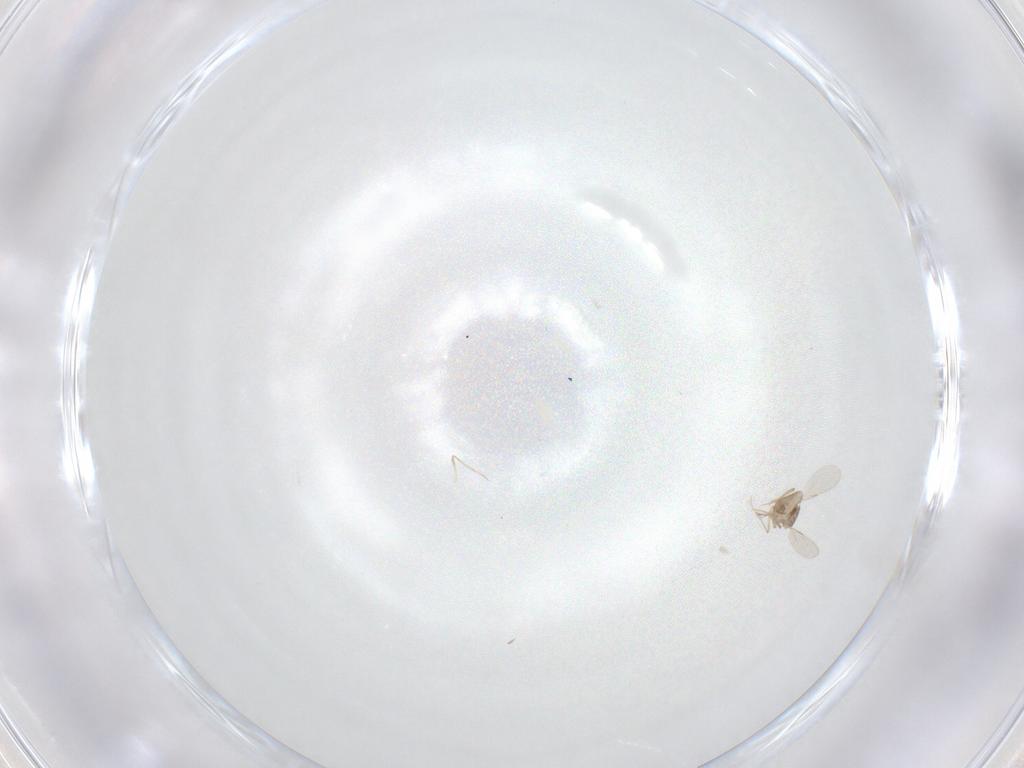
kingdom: Animalia
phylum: Arthropoda
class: Insecta
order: Diptera
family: Ceratopogonidae
